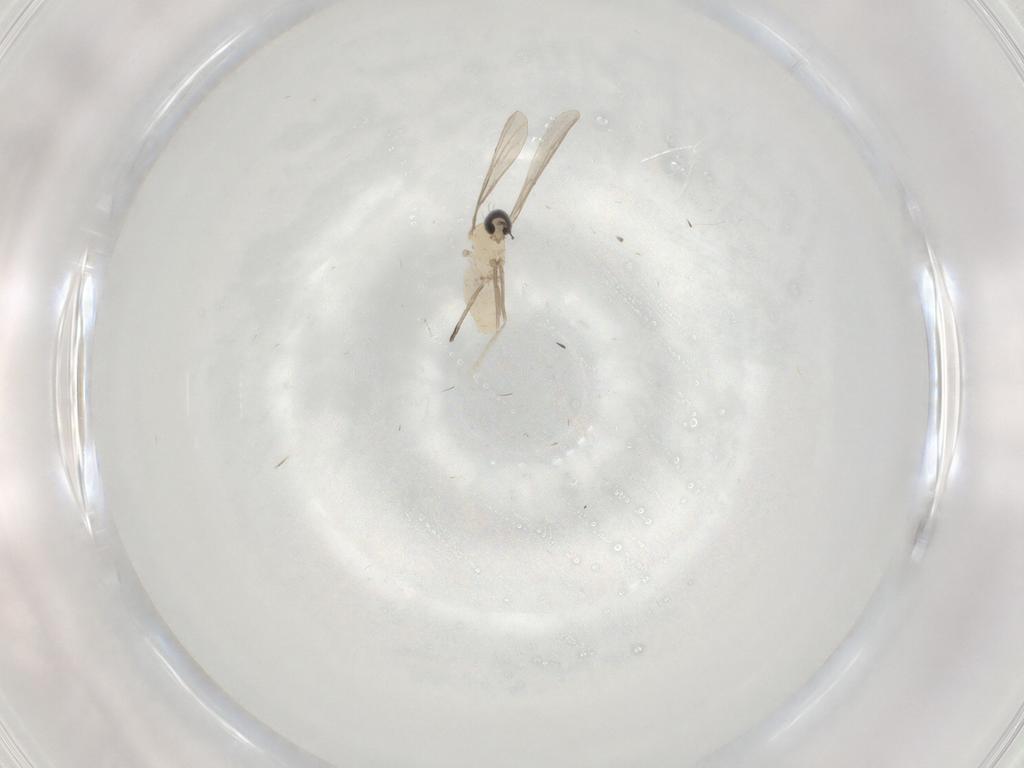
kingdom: Animalia
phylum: Arthropoda
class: Insecta
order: Diptera
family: Cecidomyiidae
